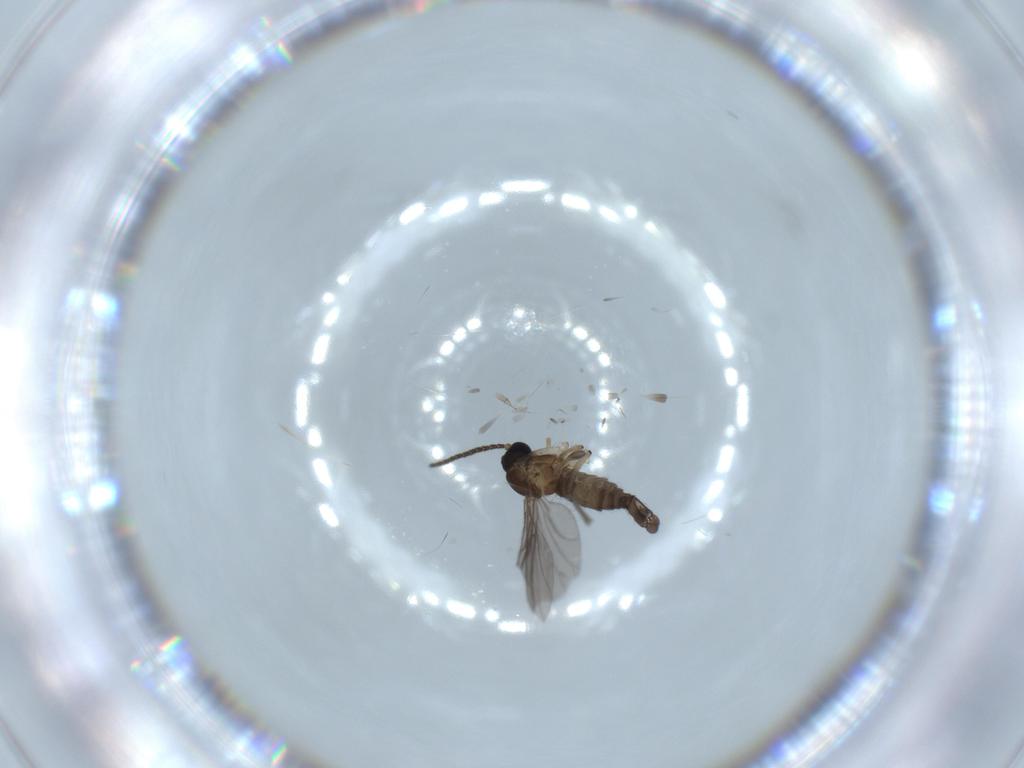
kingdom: Animalia
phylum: Arthropoda
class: Insecta
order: Diptera
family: Sciaridae
